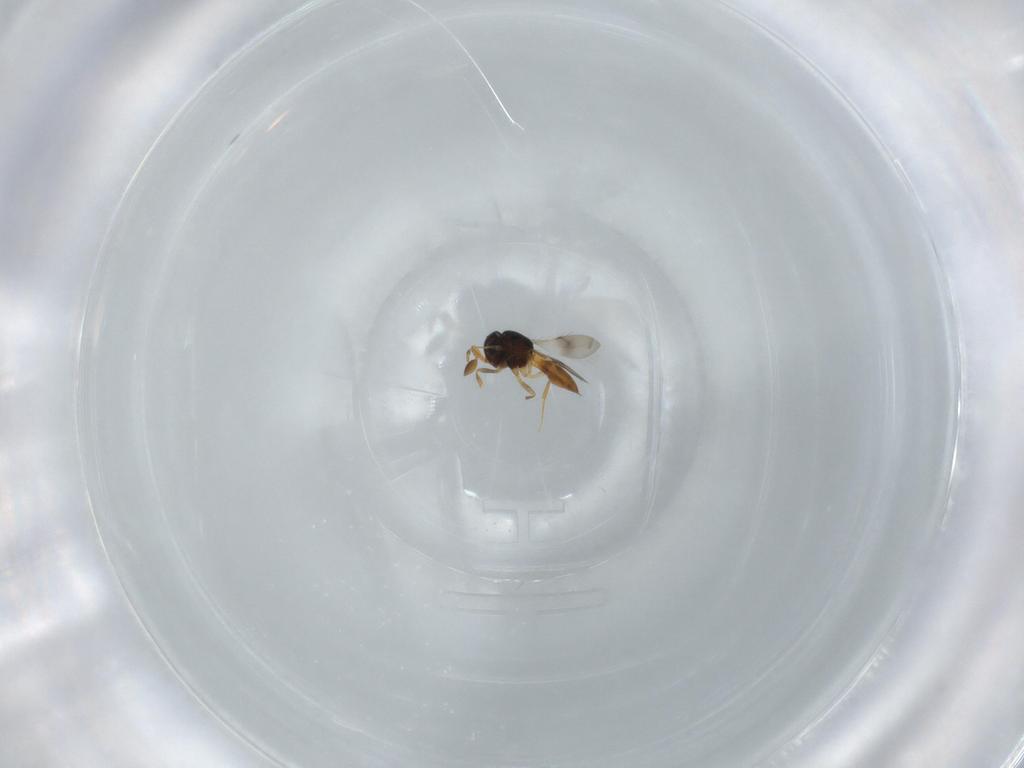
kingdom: Animalia
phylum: Arthropoda
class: Insecta
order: Hymenoptera
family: Scelionidae
